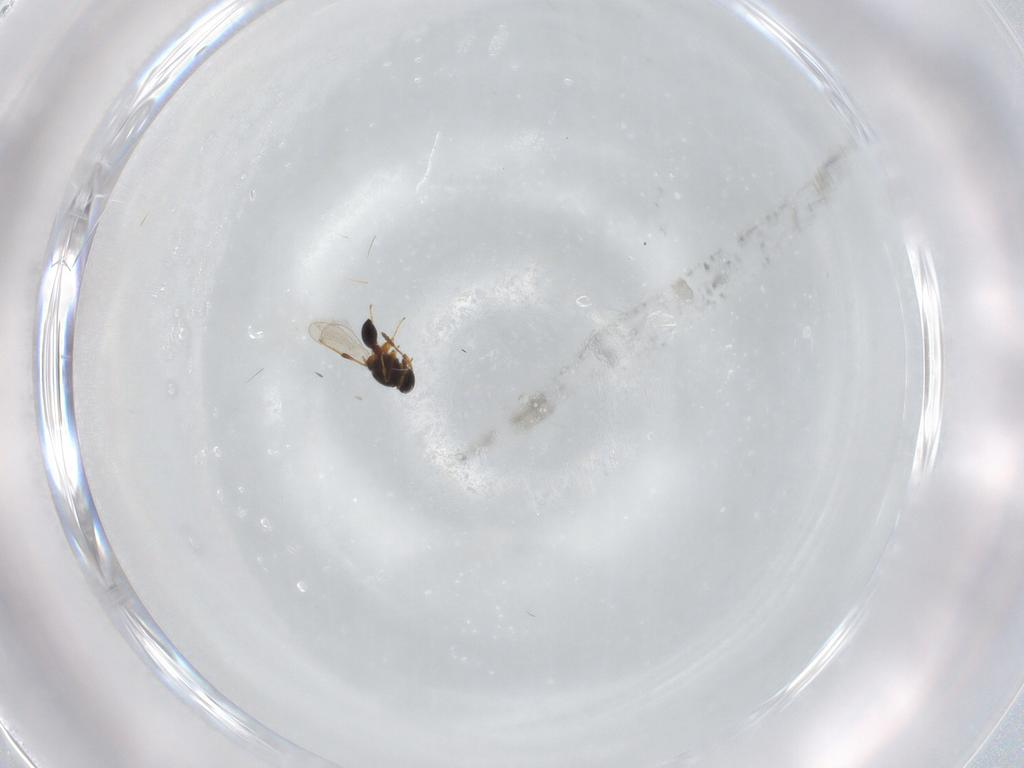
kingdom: Animalia
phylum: Arthropoda
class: Insecta
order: Hymenoptera
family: Platygastridae
